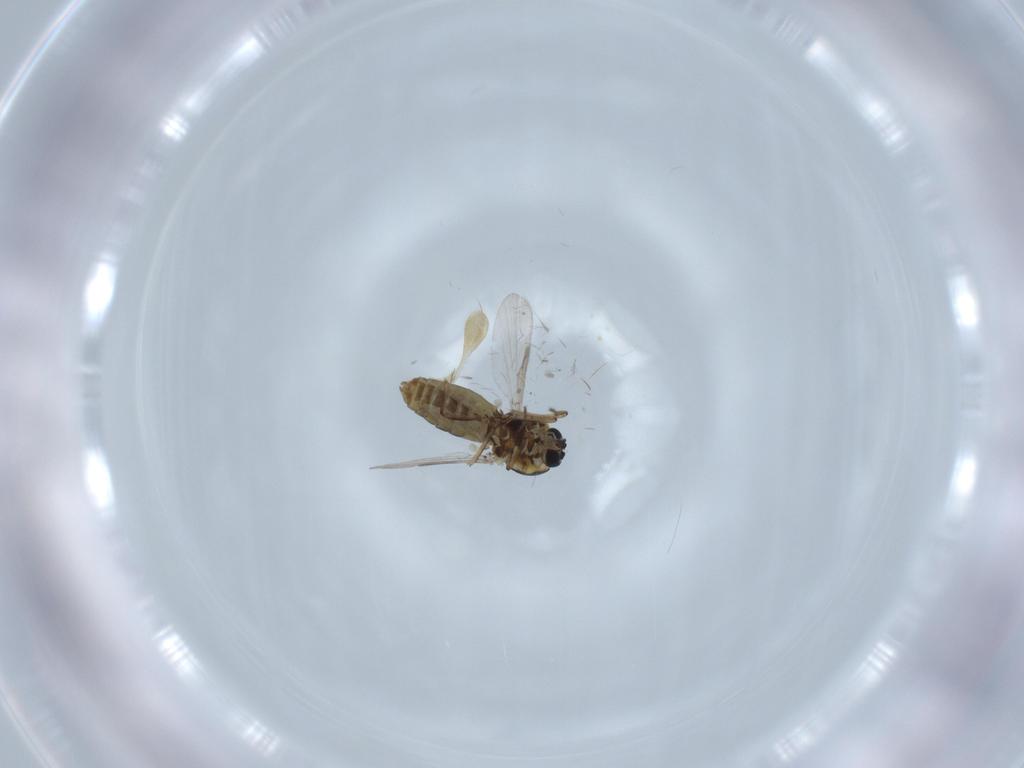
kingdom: Animalia
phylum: Arthropoda
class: Insecta
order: Diptera
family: Ceratopogonidae
